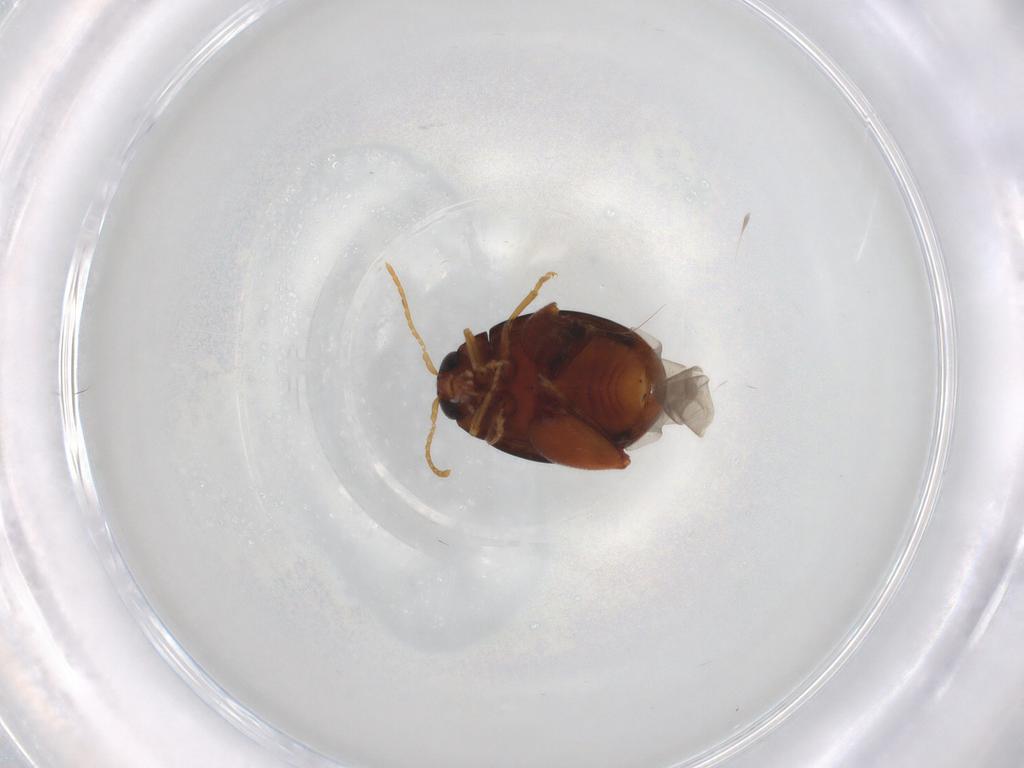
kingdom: Animalia
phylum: Arthropoda
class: Insecta
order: Coleoptera
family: Chrysomelidae
